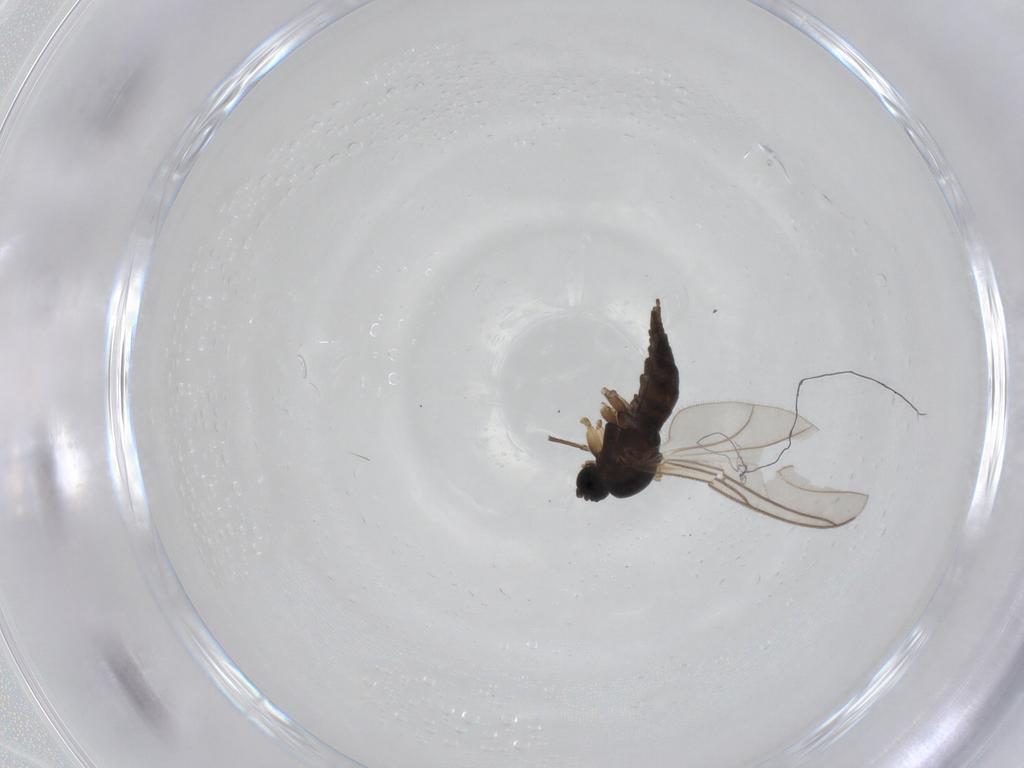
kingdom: Animalia
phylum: Arthropoda
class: Insecta
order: Diptera
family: Sciaridae
